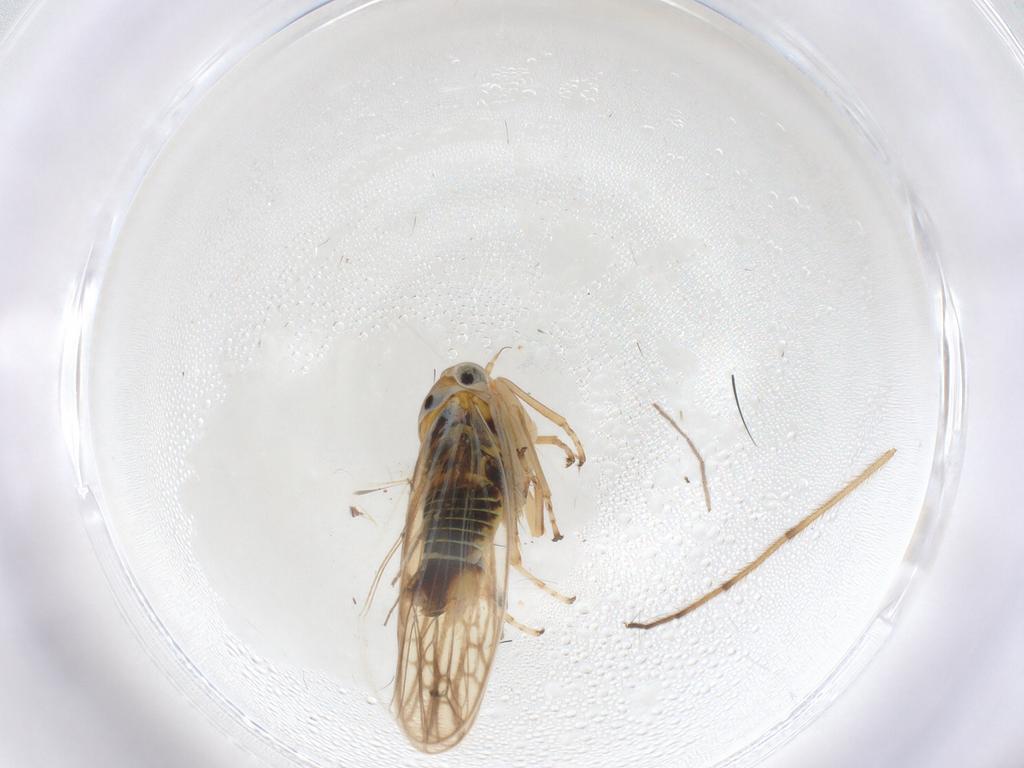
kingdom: Animalia
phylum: Arthropoda
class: Insecta
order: Hemiptera
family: Cicadellidae
